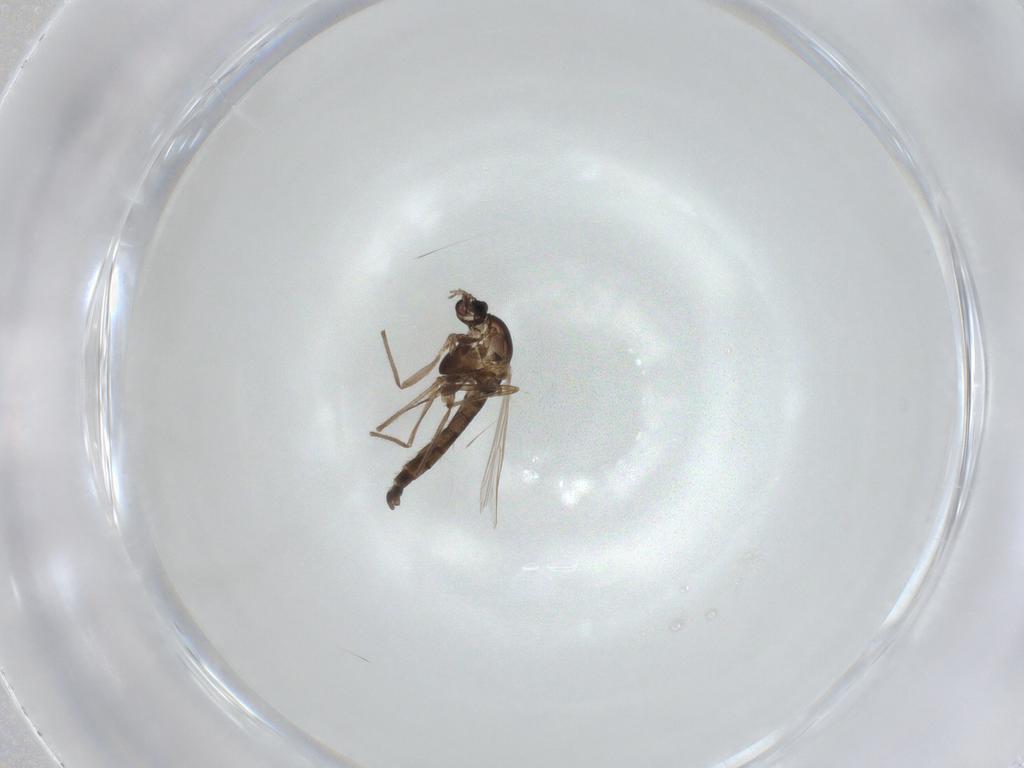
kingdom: Animalia
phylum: Arthropoda
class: Insecta
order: Diptera
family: Chironomidae
